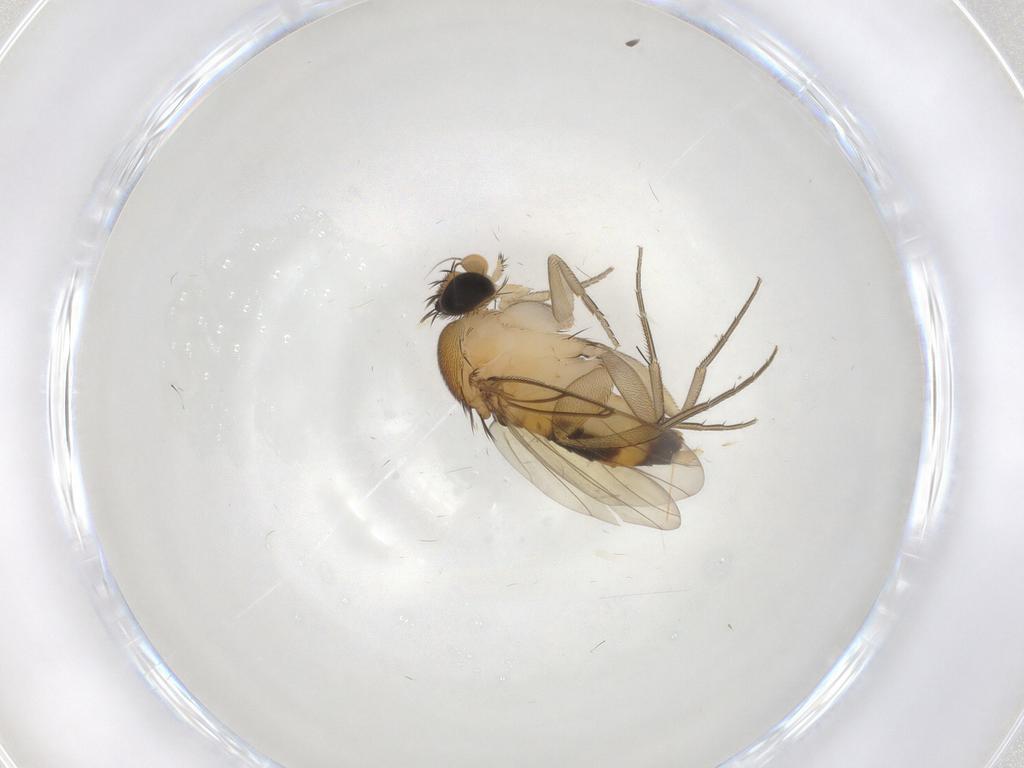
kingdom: Animalia
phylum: Arthropoda
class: Insecta
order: Diptera
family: Phoridae
